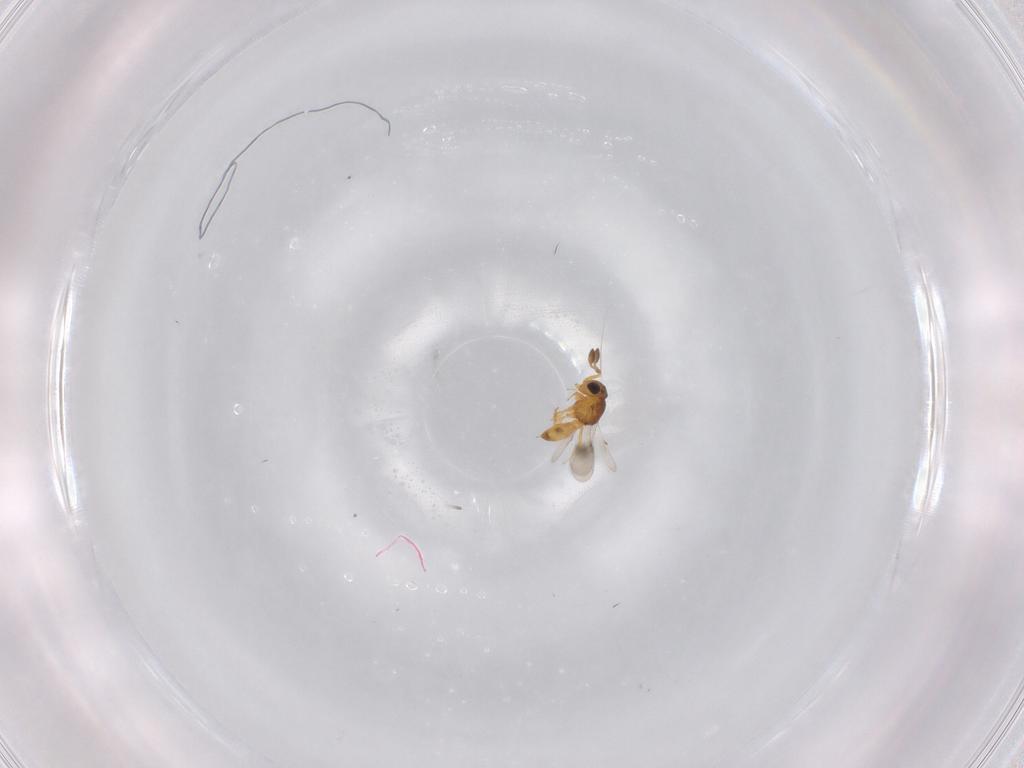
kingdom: Animalia
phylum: Arthropoda
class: Insecta
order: Hymenoptera
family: Scelionidae
